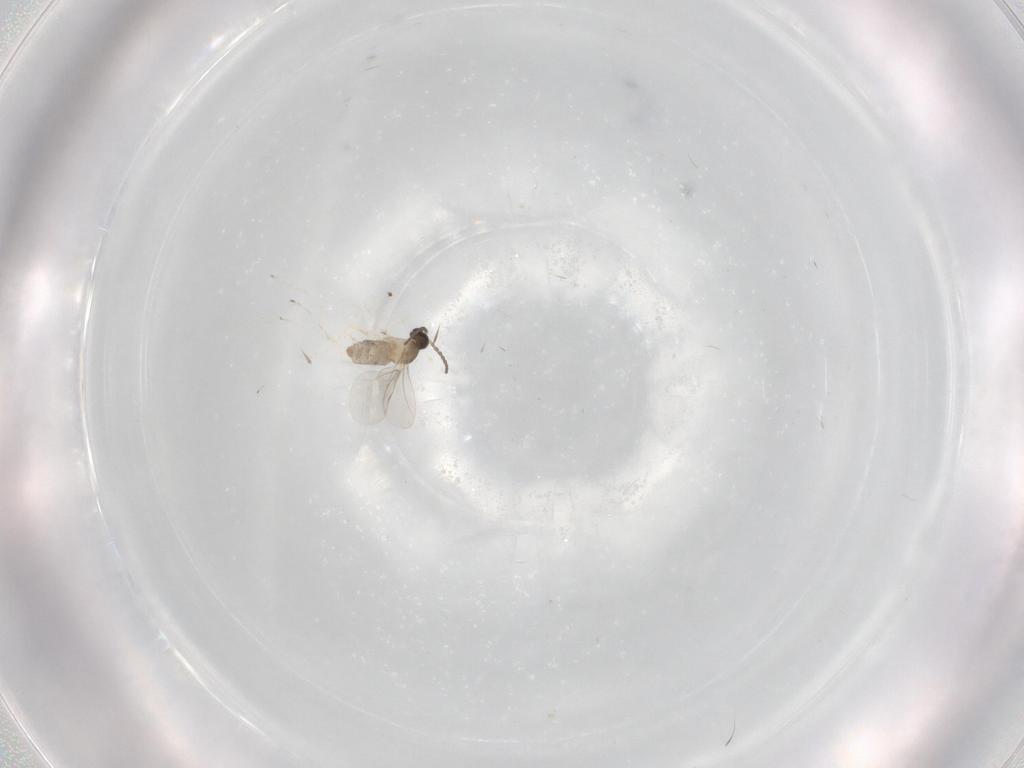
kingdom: Animalia
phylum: Arthropoda
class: Insecta
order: Diptera
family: Cecidomyiidae
